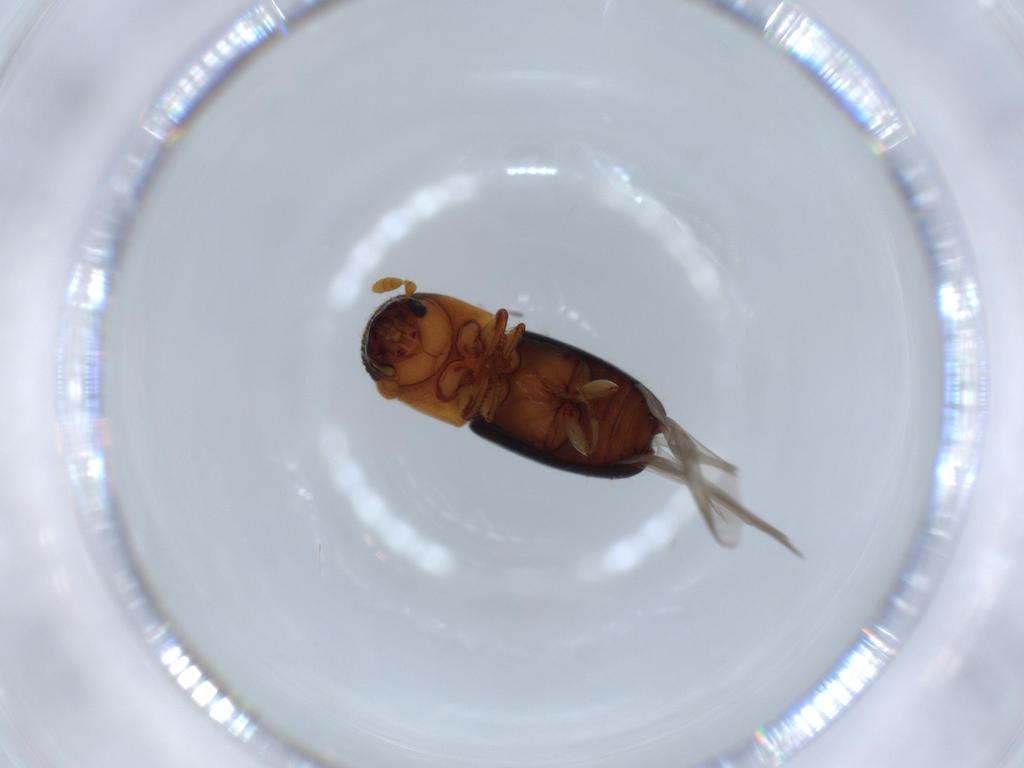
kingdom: Animalia
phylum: Arthropoda
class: Insecta
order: Coleoptera
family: Curculionidae
